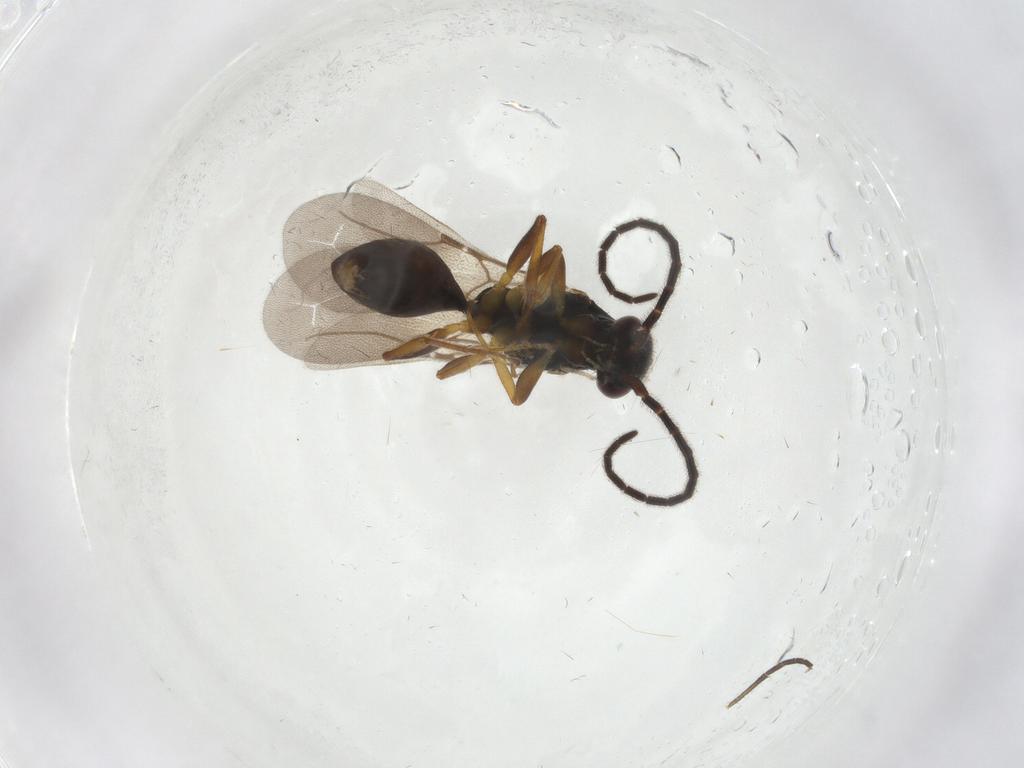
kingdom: Animalia
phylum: Arthropoda
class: Insecta
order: Hymenoptera
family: Bethylidae
